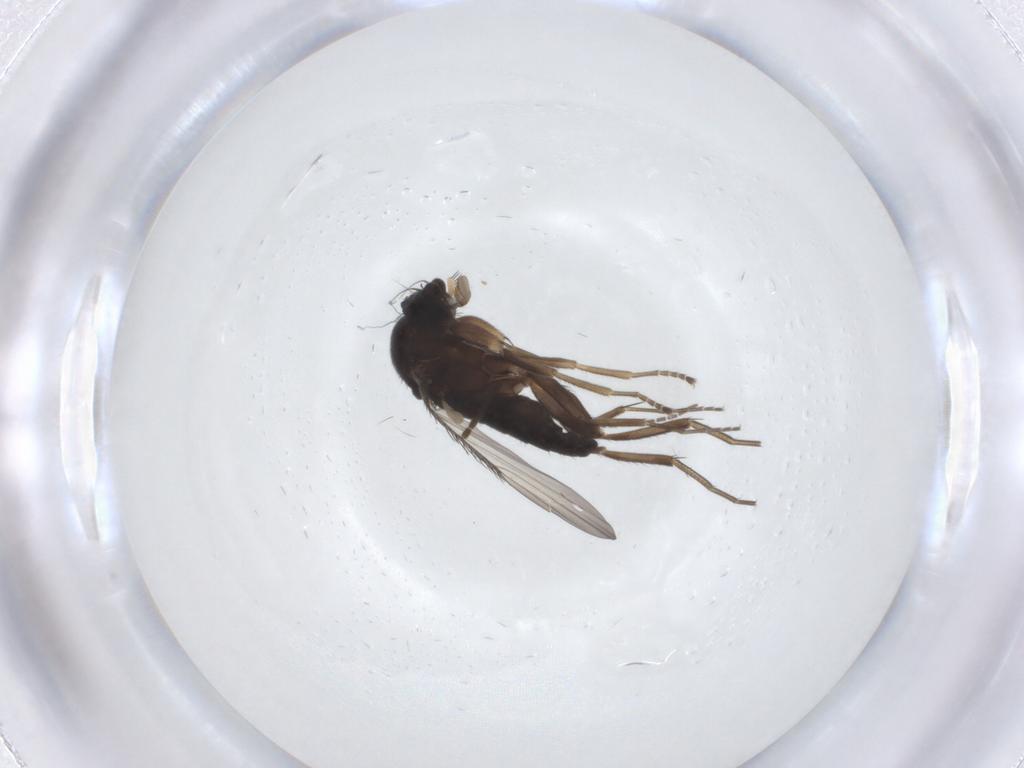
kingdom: Animalia
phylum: Arthropoda
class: Insecta
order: Diptera
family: Phoridae
